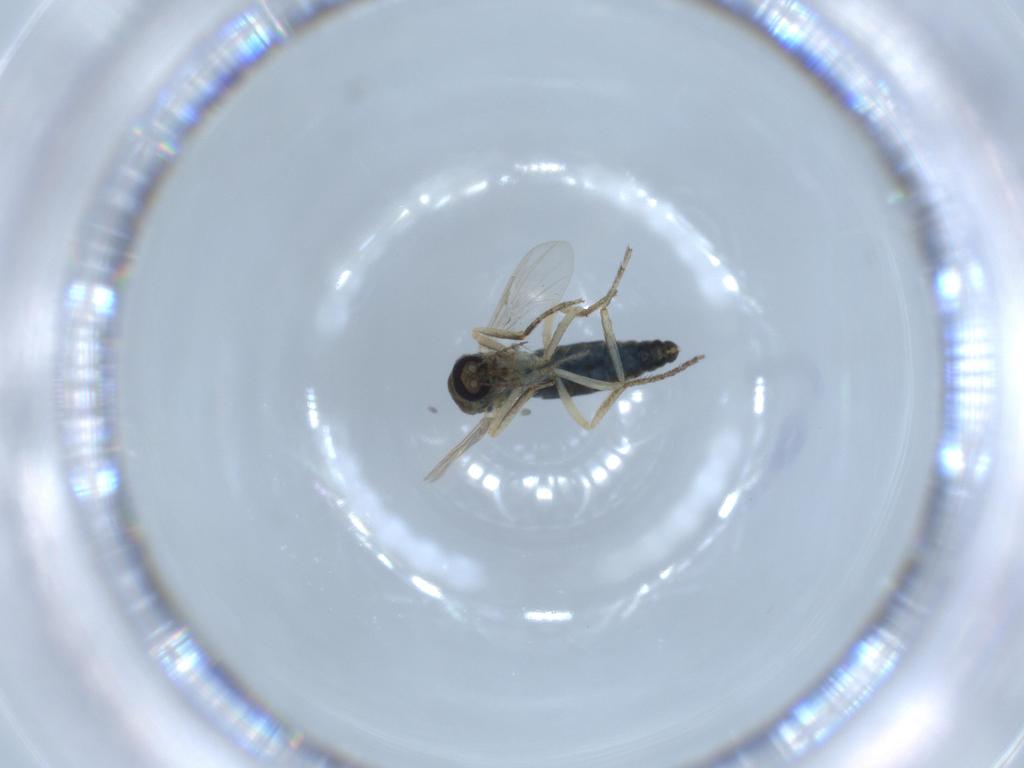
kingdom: Animalia
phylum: Arthropoda
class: Insecta
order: Diptera
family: Ceratopogonidae
